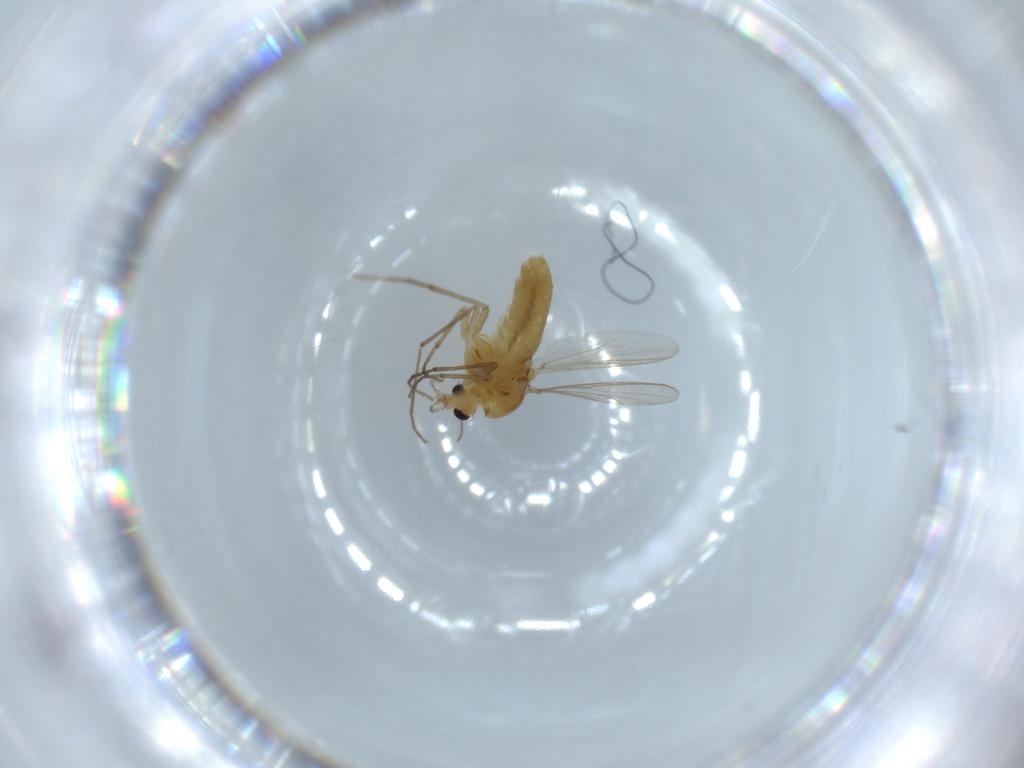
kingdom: Animalia
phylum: Arthropoda
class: Insecta
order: Diptera
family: Chironomidae
